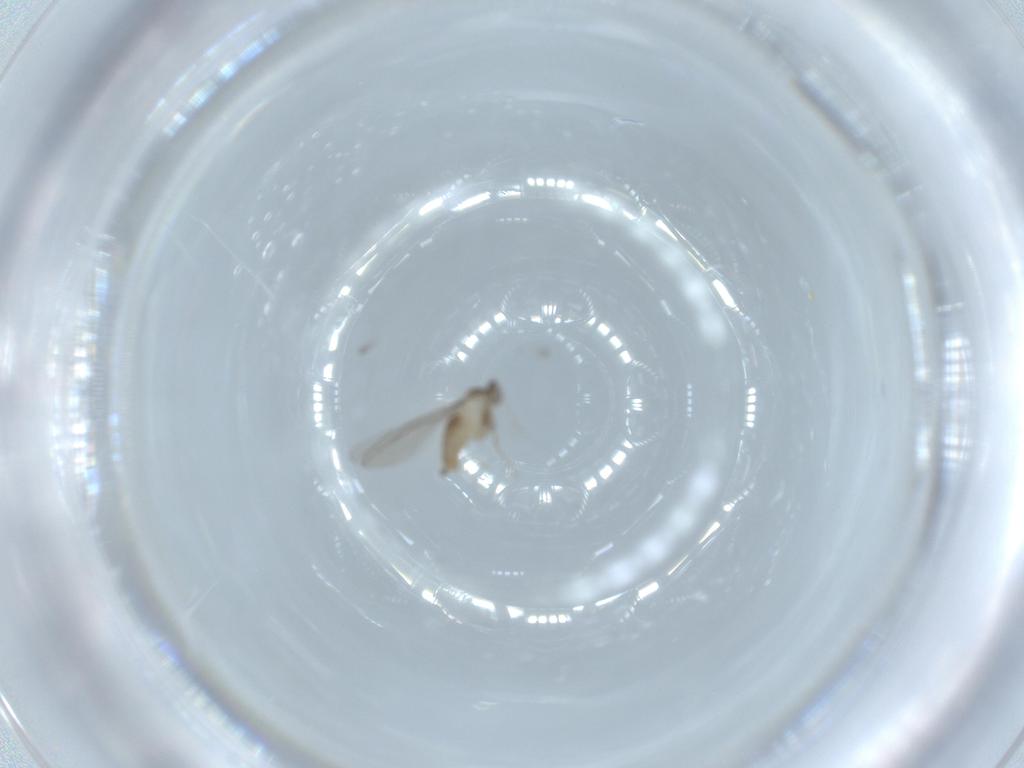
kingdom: Animalia
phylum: Arthropoda
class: Insecta
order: Diptera
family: Cecidomyiidae
